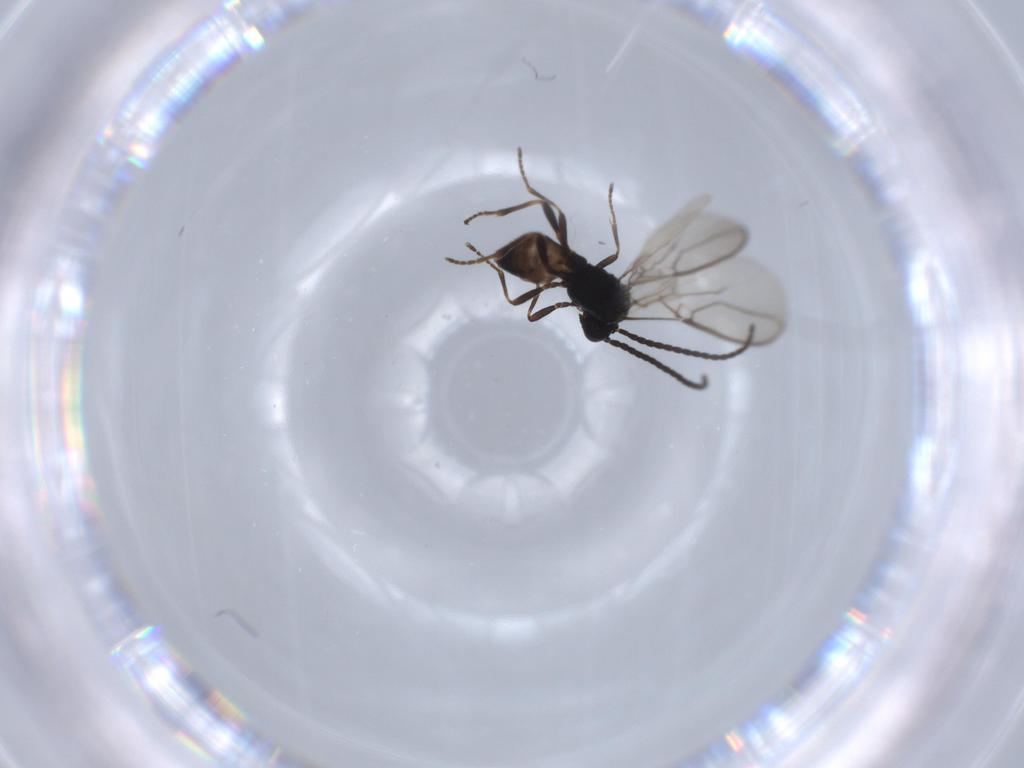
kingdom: Animalia
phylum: Arthropoda
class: Insecta
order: Hymenoptera
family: Braconidae
